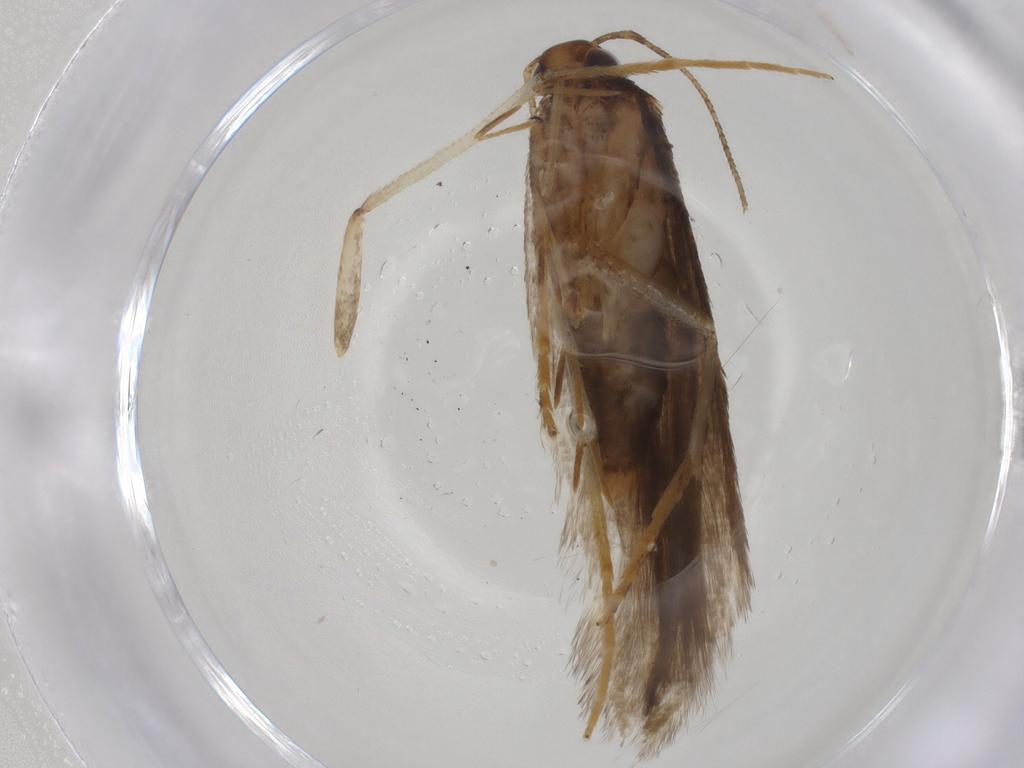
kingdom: Animalia
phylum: Arthropoda
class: Insecta
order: Lepidoptera
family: Gelechiidae
